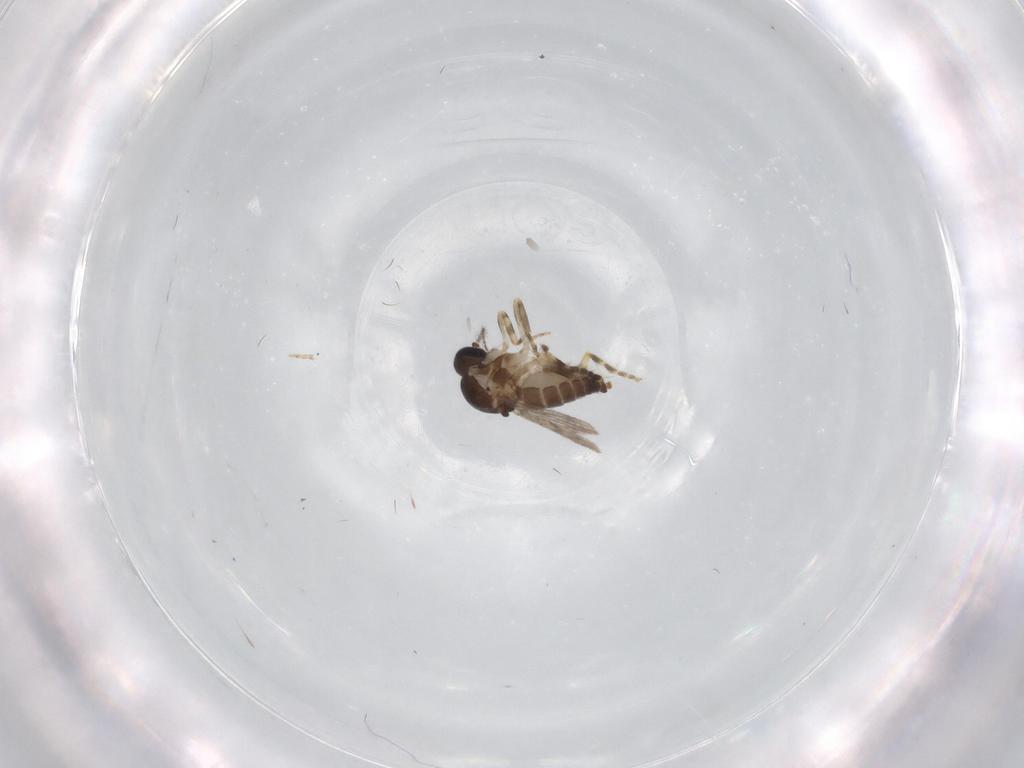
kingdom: Animalia
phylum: Arthropoda
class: Insecta
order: Diptera
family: Ceratopogonidae
